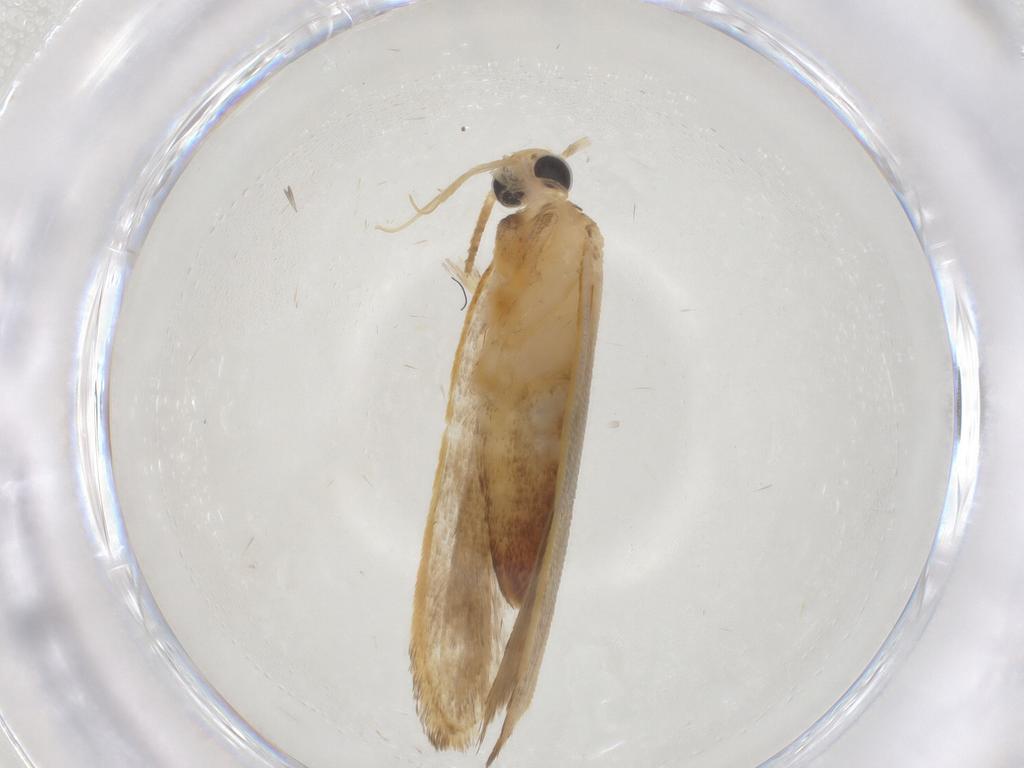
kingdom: Animalia
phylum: Arthropoda
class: Insecta
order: Lepidoptera
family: Gelechiidae
